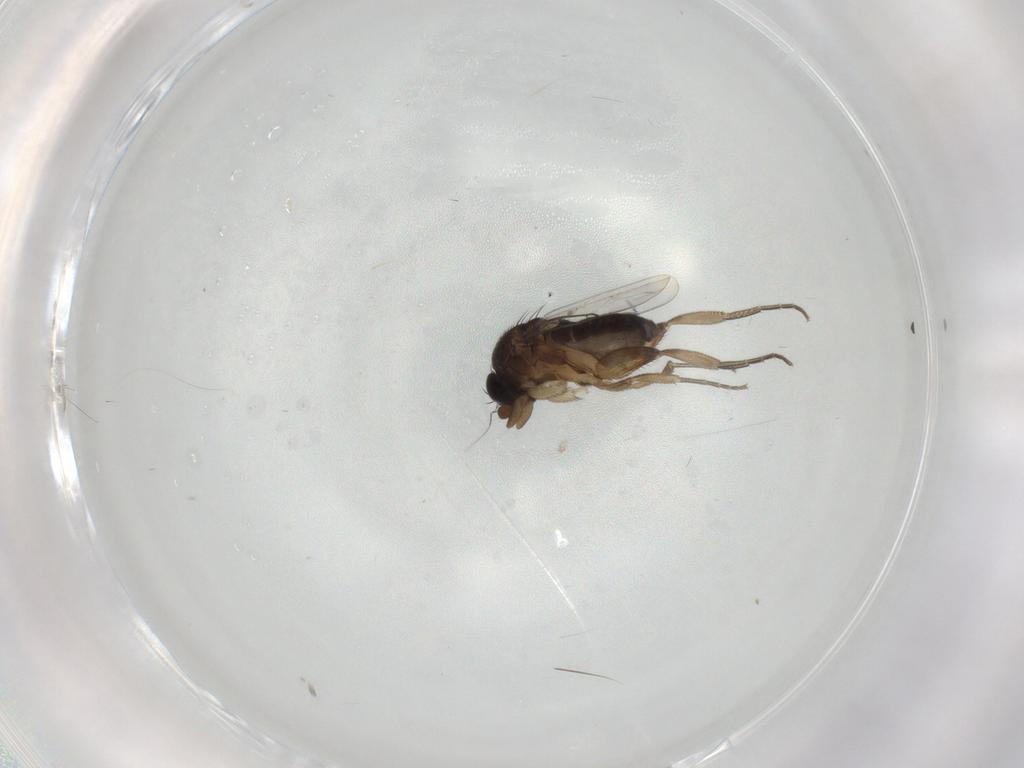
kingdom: Animalia
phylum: Arthropoda
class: Insecta
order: Diptera
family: Phoridae
